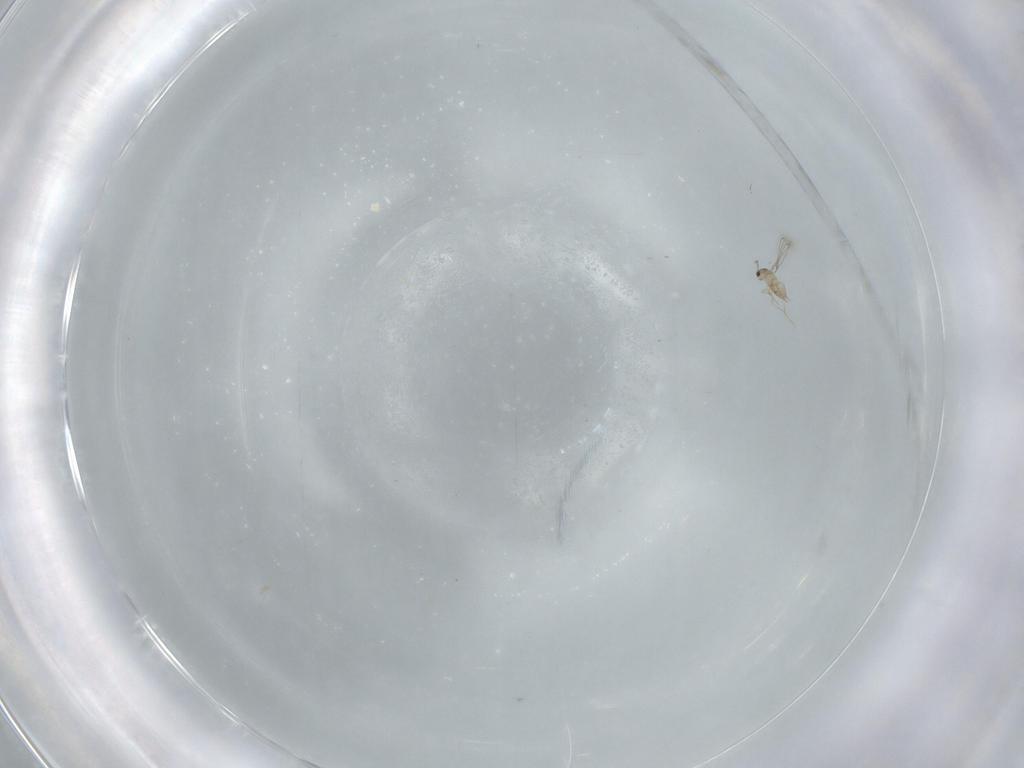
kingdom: Animalia
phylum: Arthropoda
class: Insecta
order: Hymenoptera
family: Mymaridae
